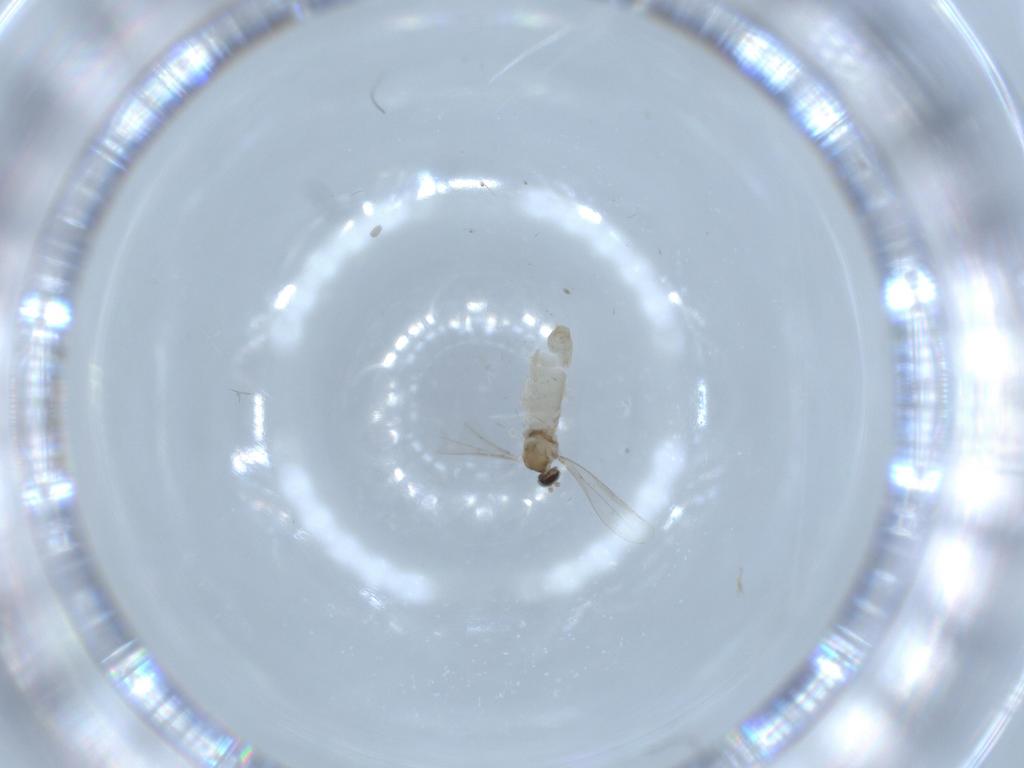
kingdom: Animalia
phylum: Arthropoda
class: Insecta
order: Diptera
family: Cecidomyiidae
